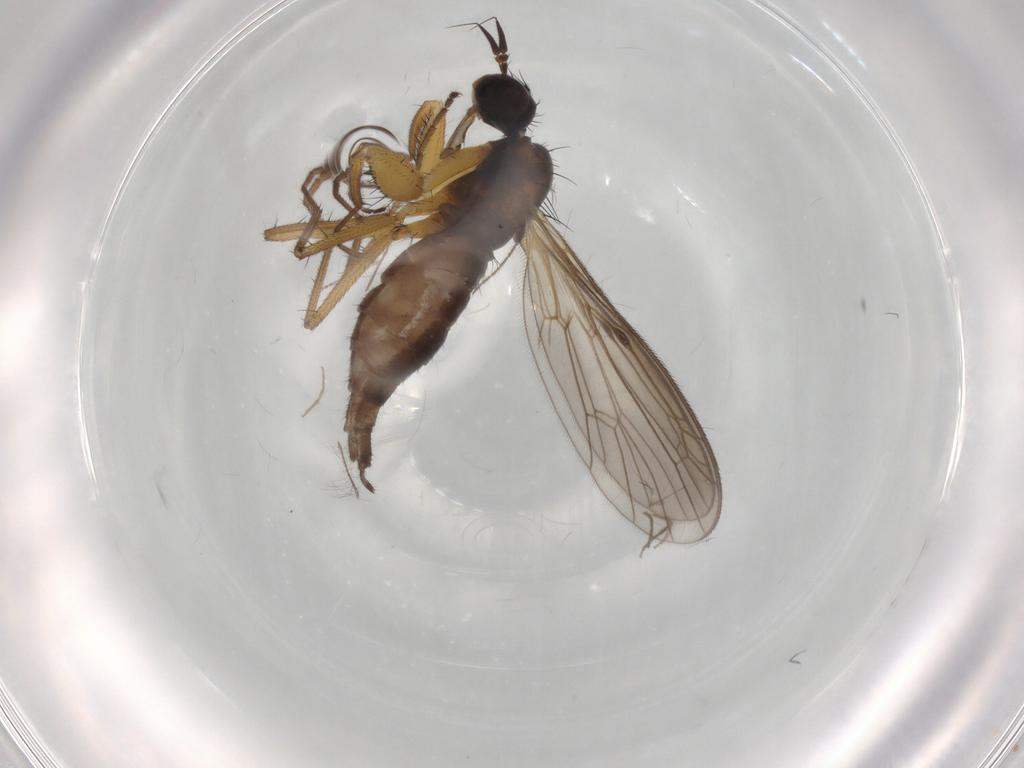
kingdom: Animalia
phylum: Arthropoda
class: Insecta
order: Diptera
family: Chironomidae
